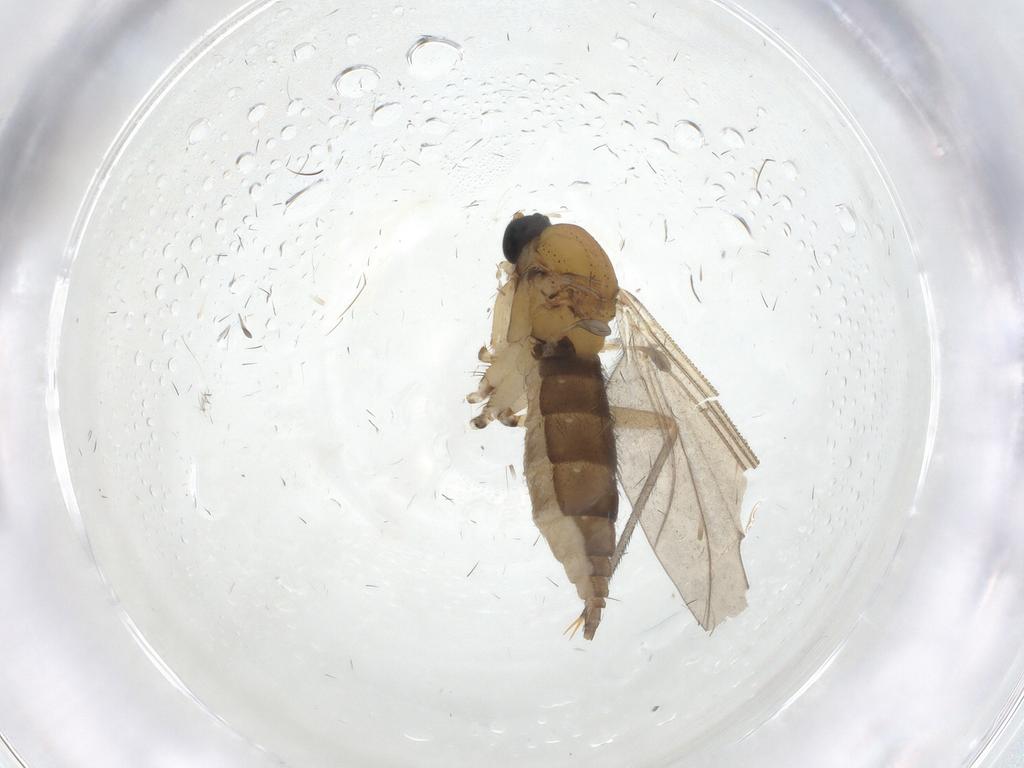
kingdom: Animalia
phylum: Arthropoda
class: Insecta
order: Diptera
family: Sciaridae
